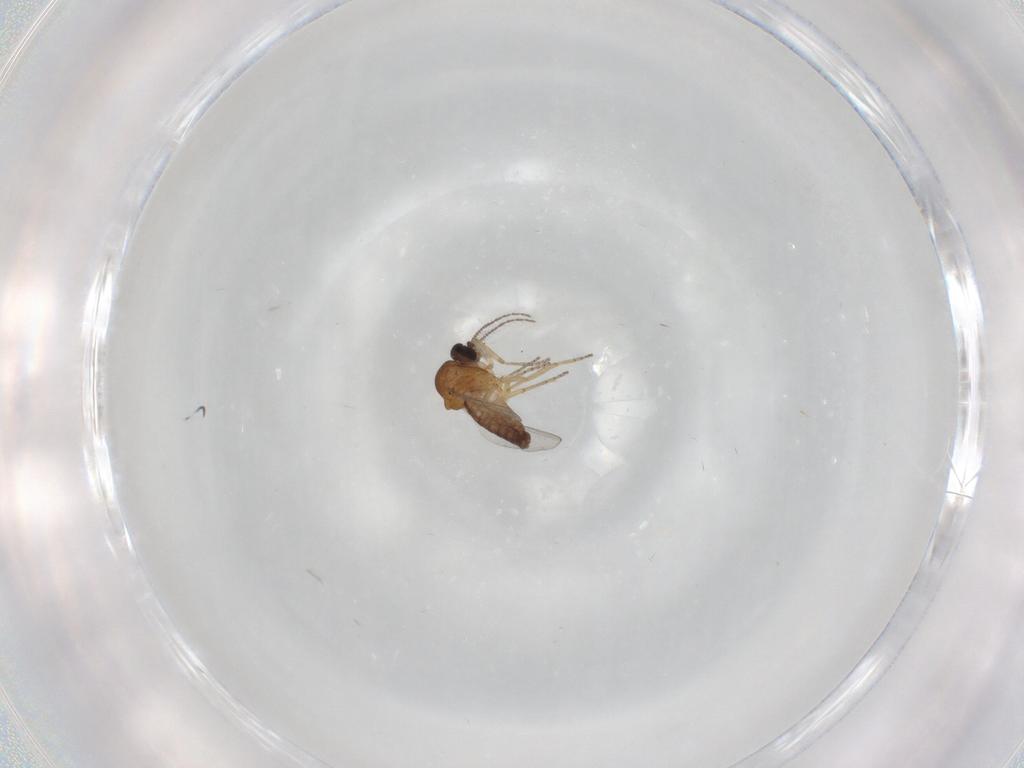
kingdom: Animalia
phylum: Arthropoda
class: Insecta
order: Diptera
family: Ceratopogonidae
